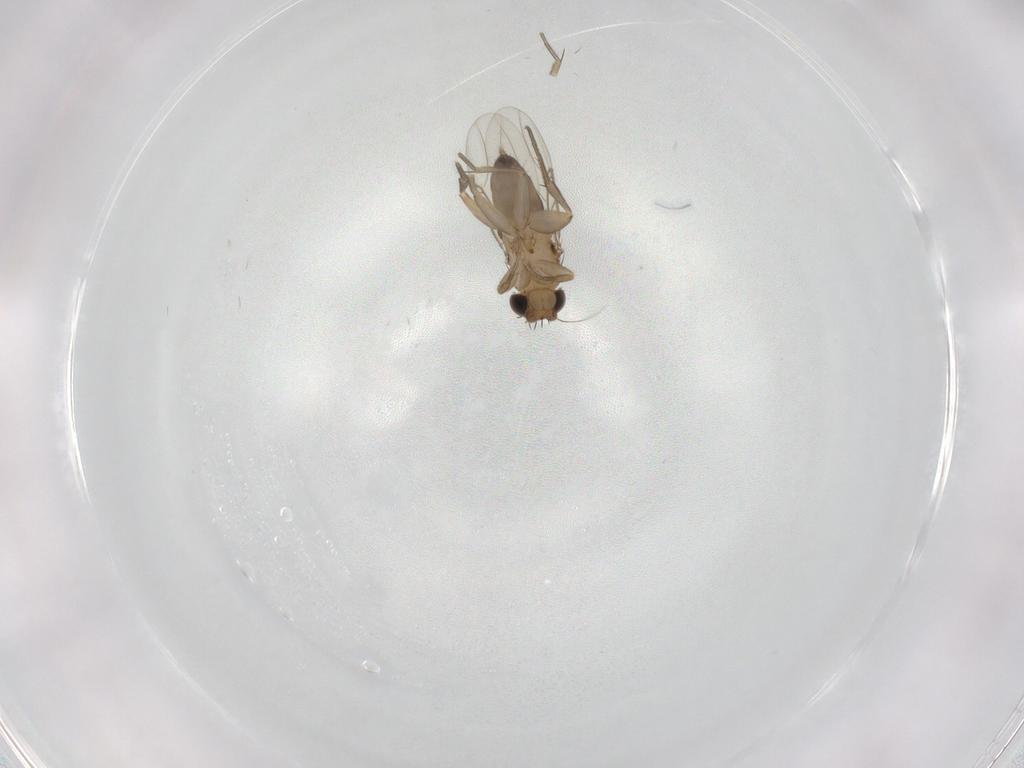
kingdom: Animalia
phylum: Arthropoda
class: Insecta
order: Diptera
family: Phoridae
